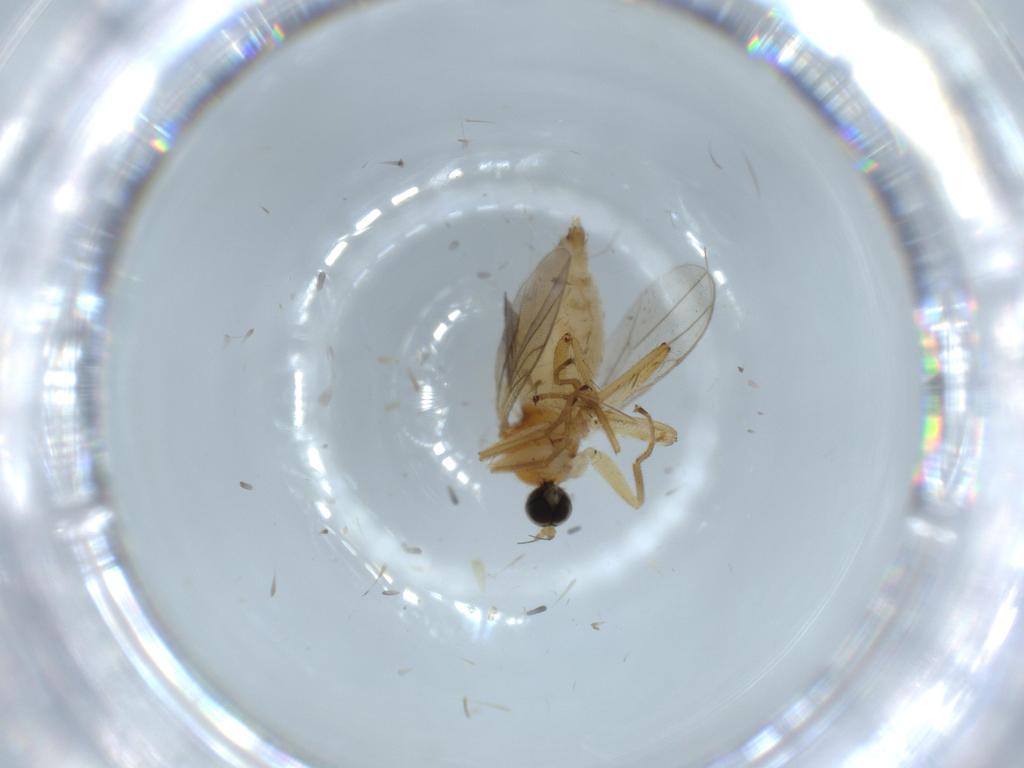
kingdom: Animalia
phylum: Arthropoda
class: Insecta
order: Diptera
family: Hybotidae
